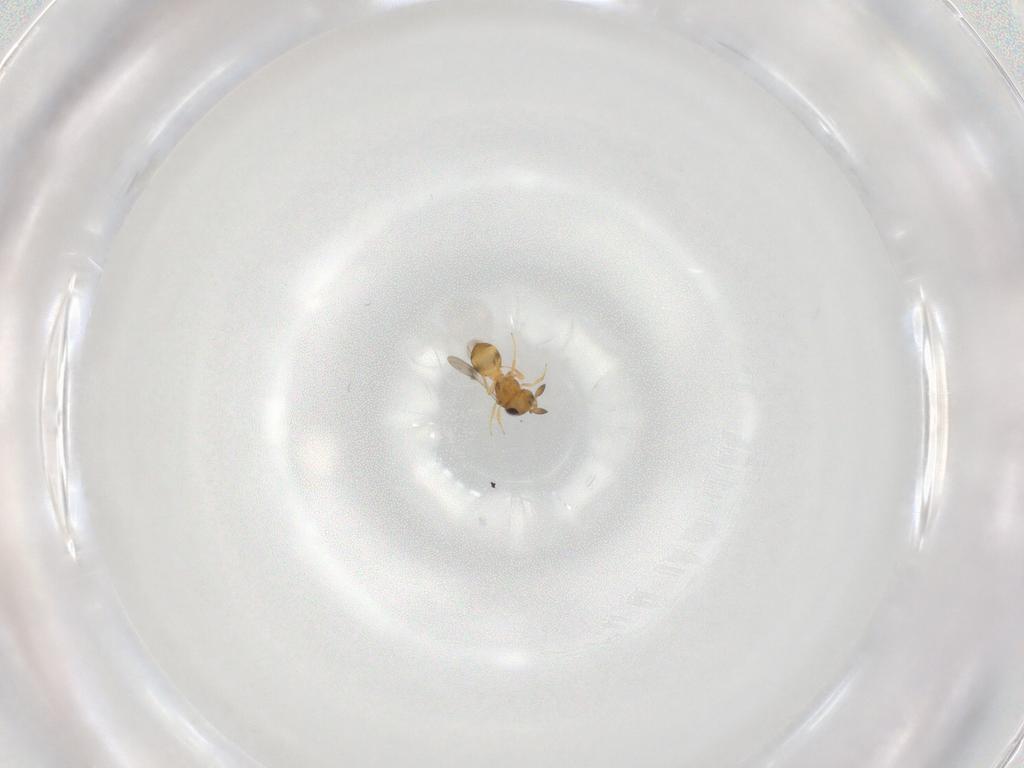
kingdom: Animalia
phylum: Arthropoda
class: Insecta
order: Hymenoptera
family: Scelionidae
